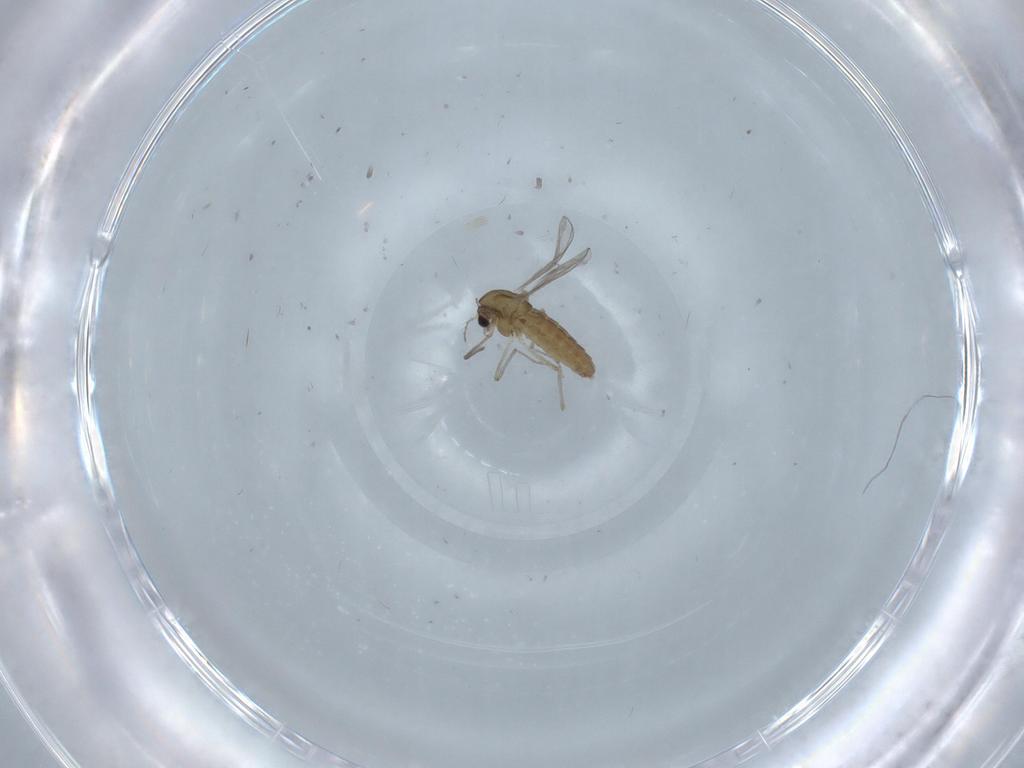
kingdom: Animalia
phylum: Arthropoda
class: Insecta
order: Diptera
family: Chironomidae
